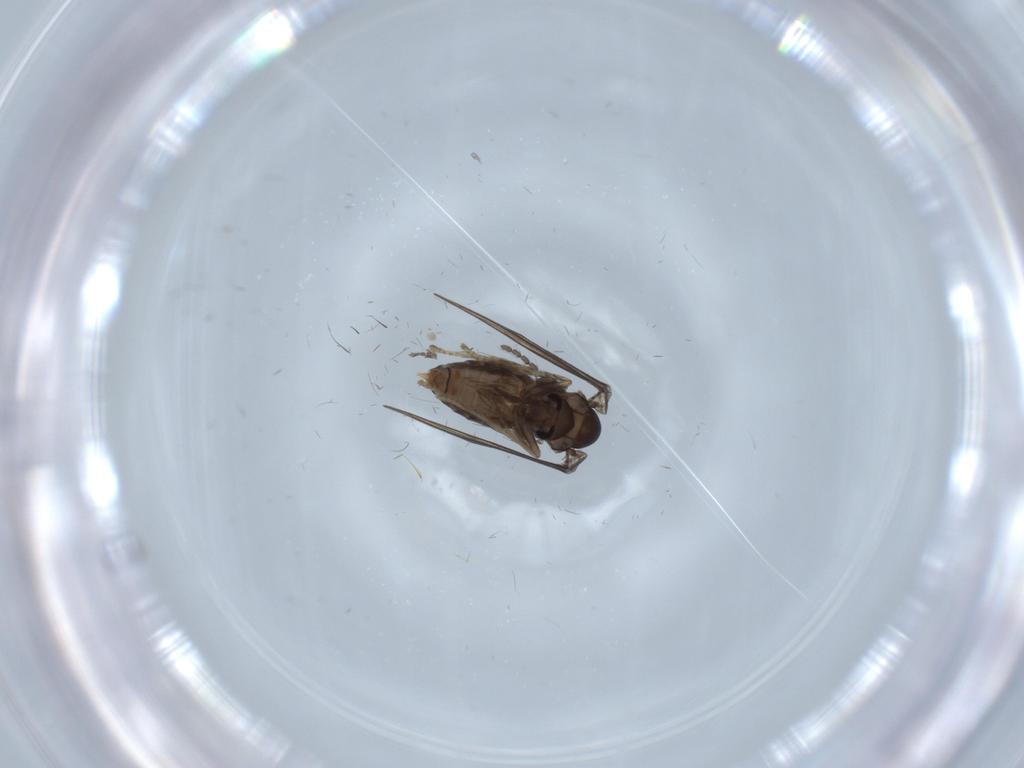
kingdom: Animalia
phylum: Arthropoda
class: Insecta
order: Diptera
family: Psychodidae
